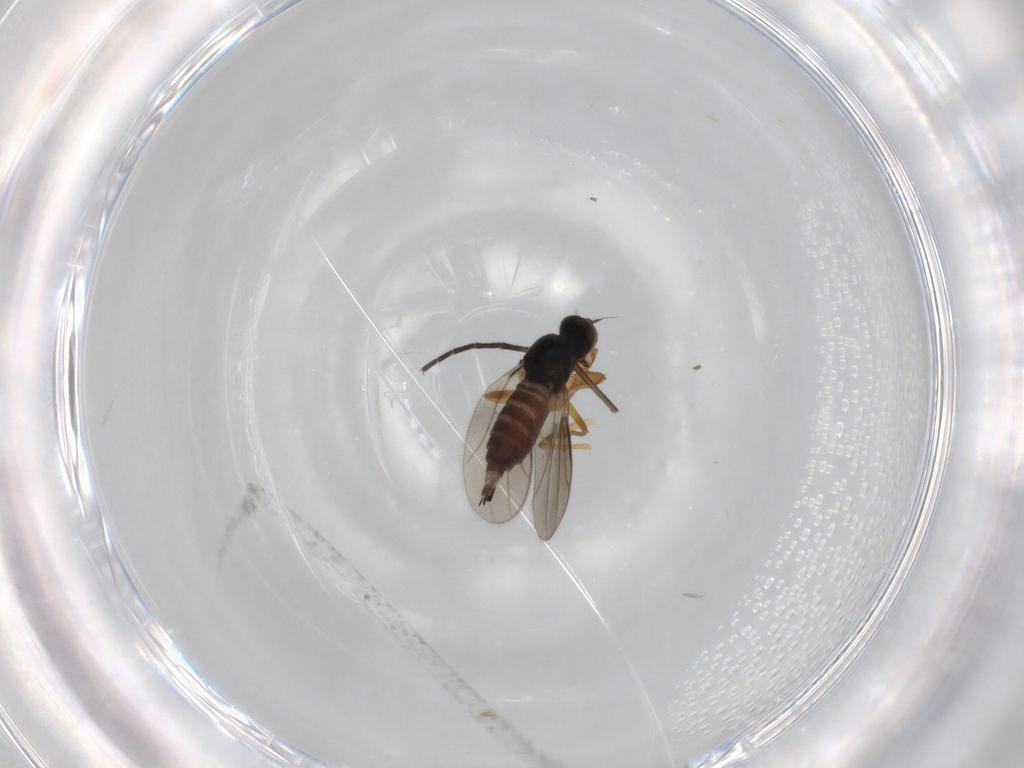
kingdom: Animalia
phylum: Arthropoda
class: Insecta
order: Diptera
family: Hybotidae
